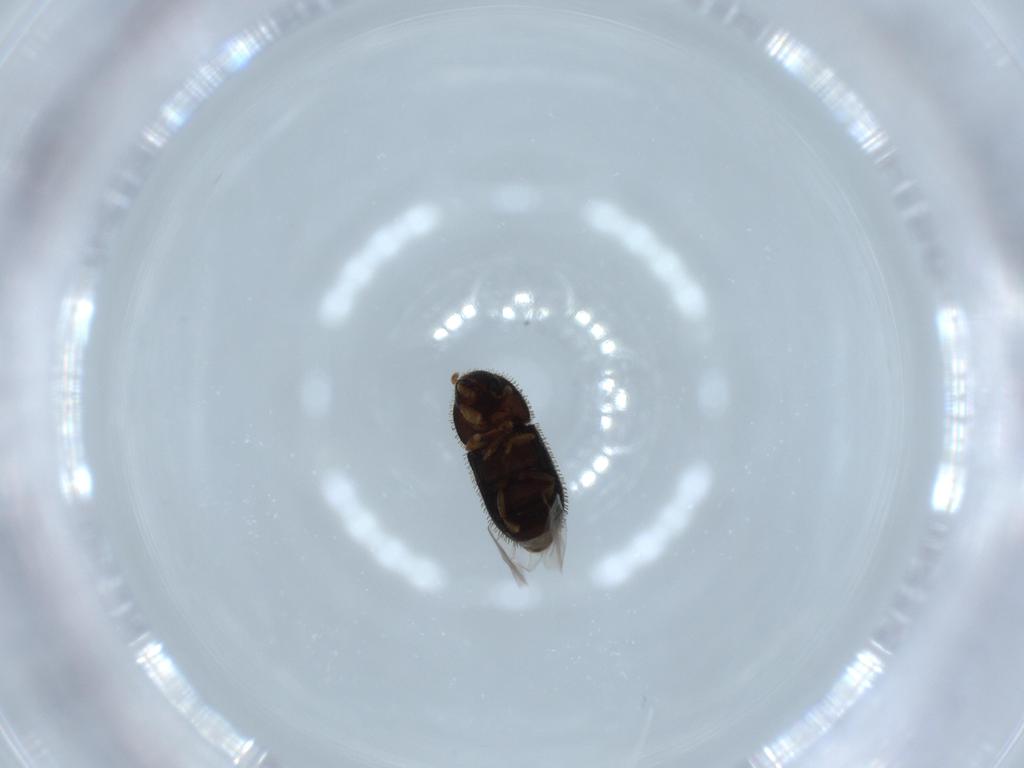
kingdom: Animalia
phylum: Arthropoda
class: Insecta
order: Coleoptera
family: Curculionidae
